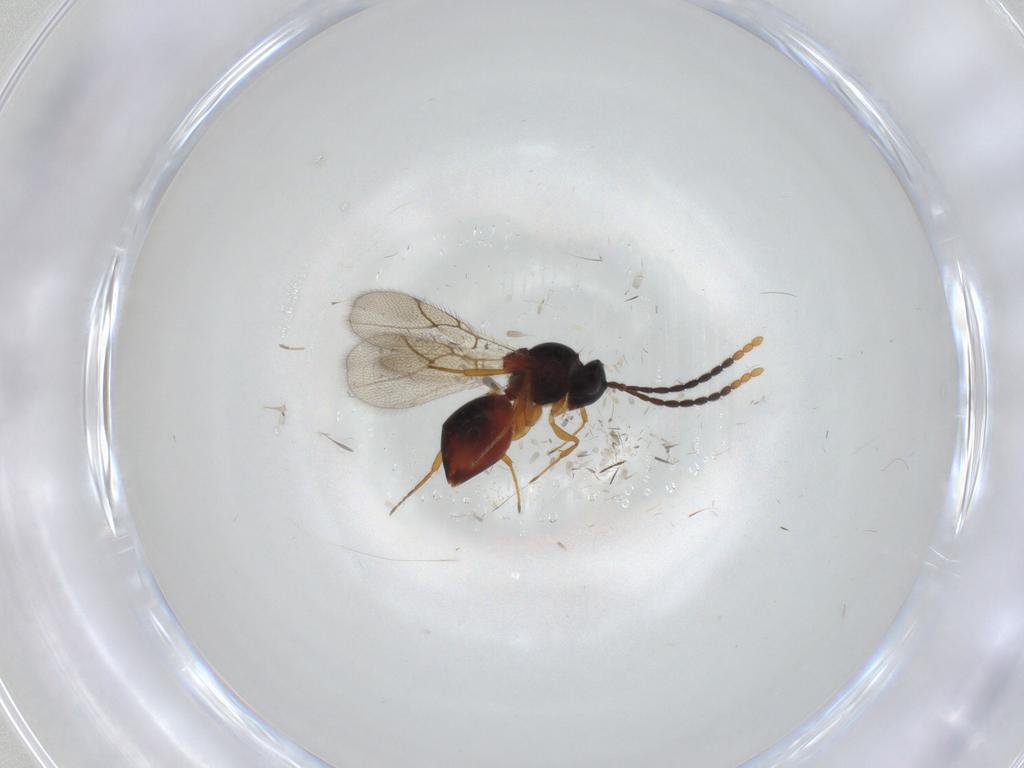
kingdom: Animalia
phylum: Arthropoda
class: Insecta
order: Hymenoptera
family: Figitidae
